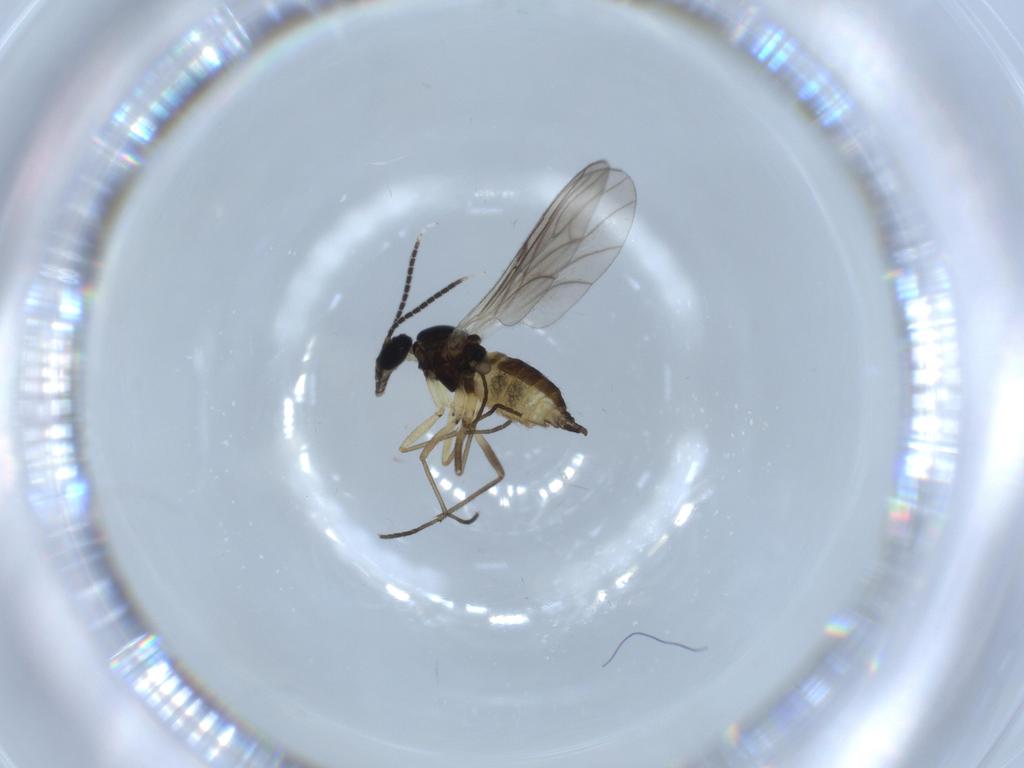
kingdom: Animalia
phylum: Arthropoda
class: Insecta
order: Diptera
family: Sciaridae
